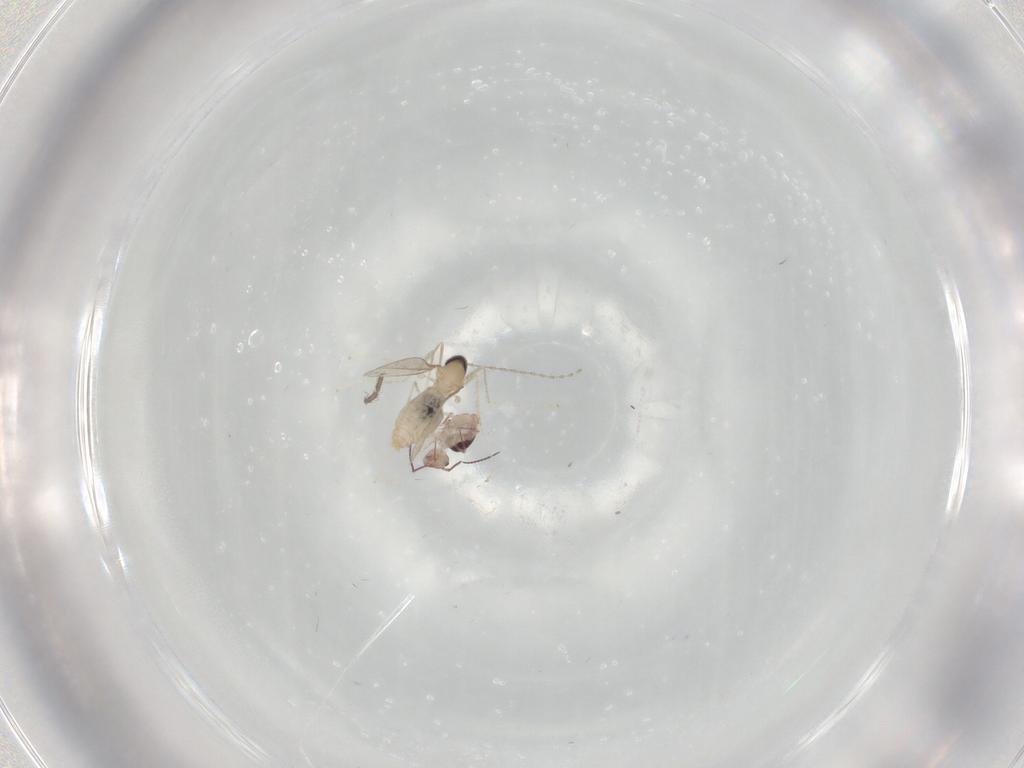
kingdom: Animalia
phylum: Arthropoda
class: Insecta
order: Diptera
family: Cecidomyiidae
